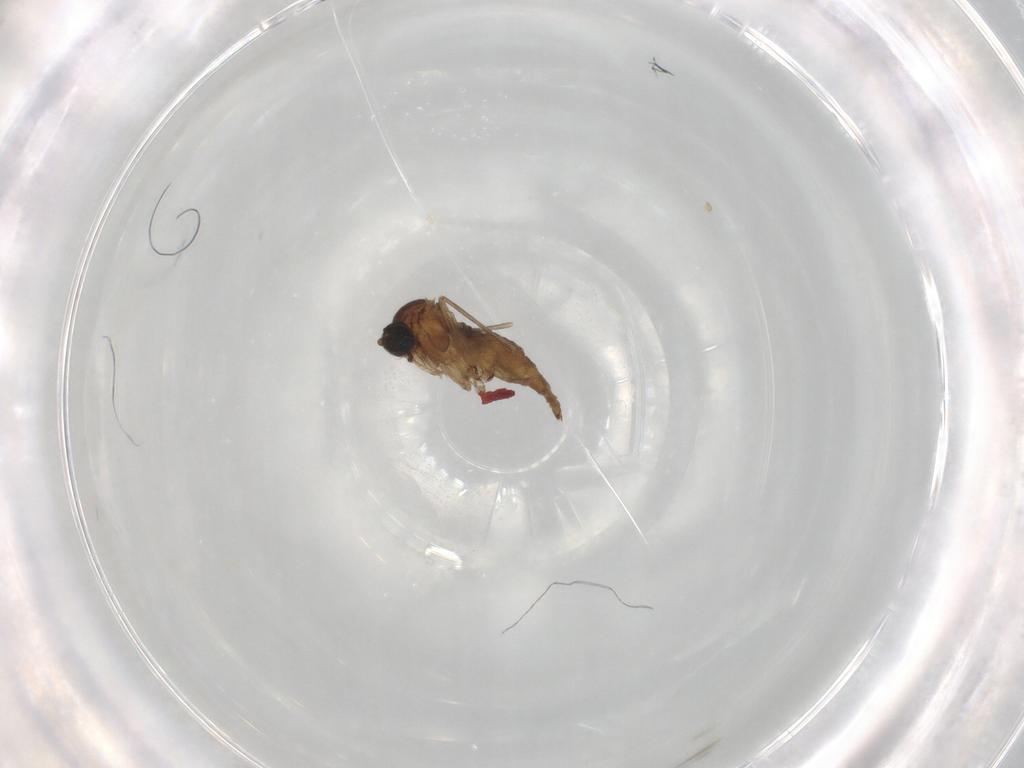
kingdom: Animalia
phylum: Arthropoda
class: Insecta
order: Diptera
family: Sciaridae
